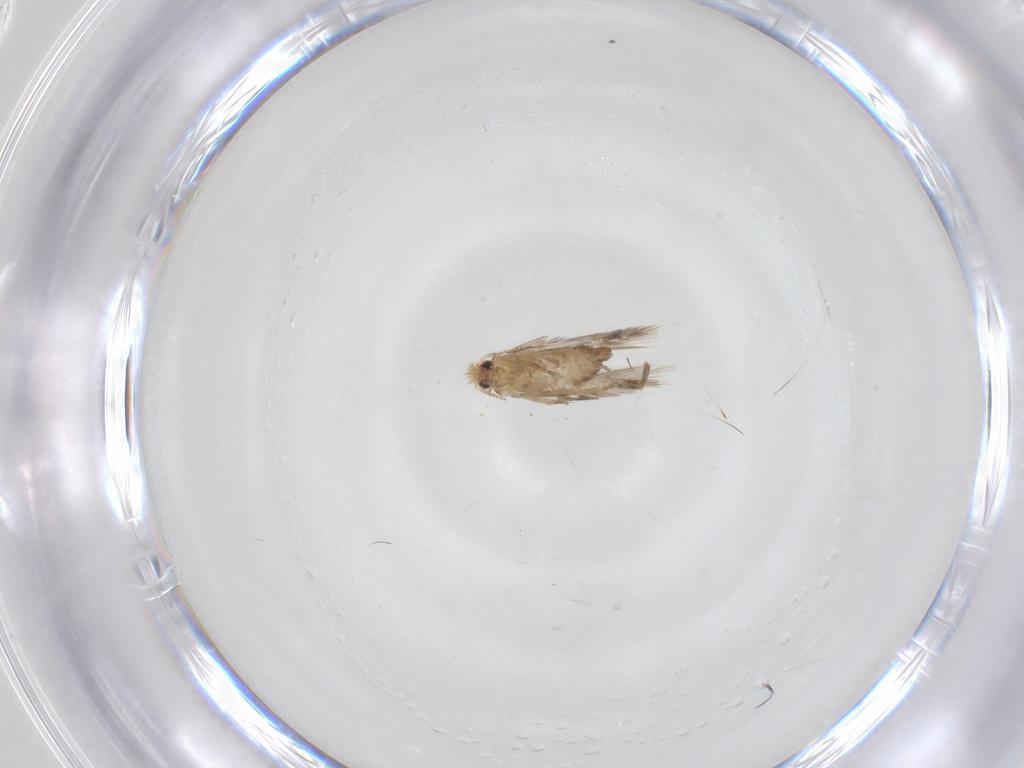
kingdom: Animalia
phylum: Arthropoda
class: Insecta
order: Lepidoptera
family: Nepticulidae
